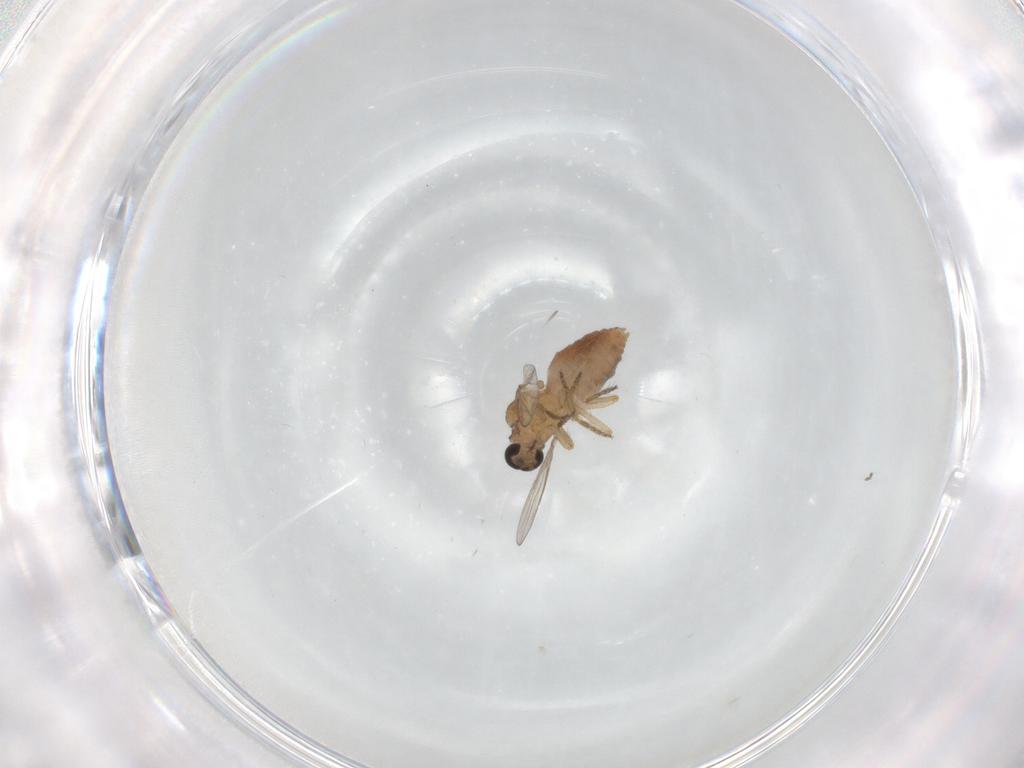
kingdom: Animalia
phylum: Arthropoda
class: Insecta
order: Diptera
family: Ceratopogonidae
